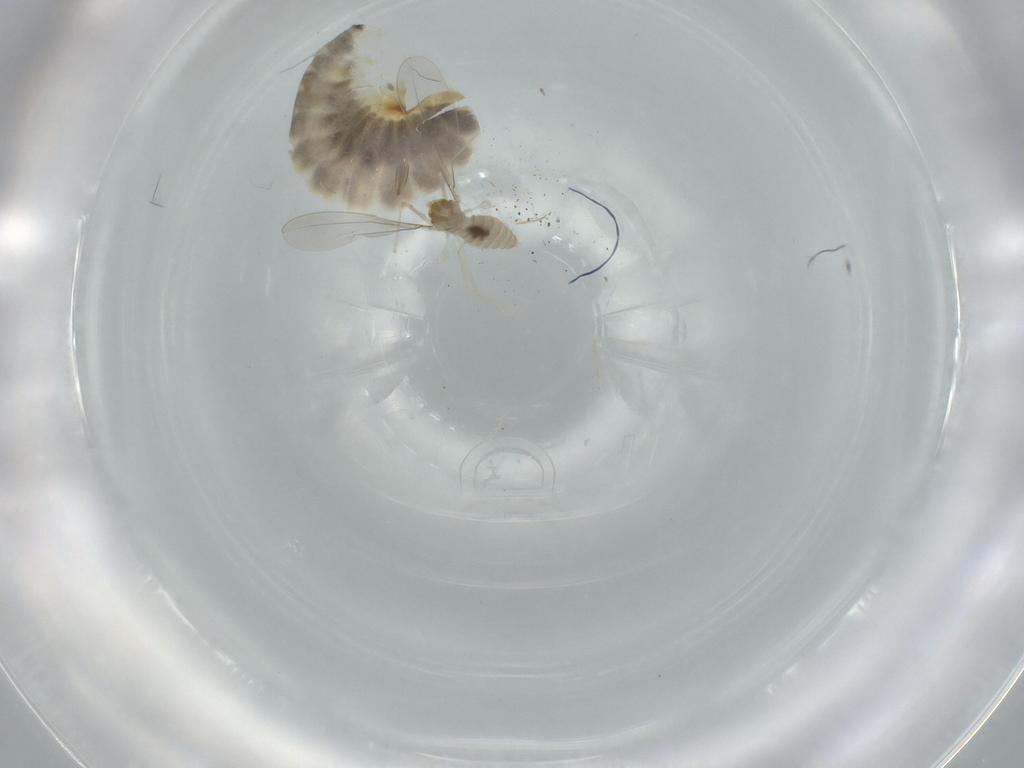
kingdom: Animalia
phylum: Arthropoda
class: Insecta
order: Diptera
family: Cecidomyiidae
